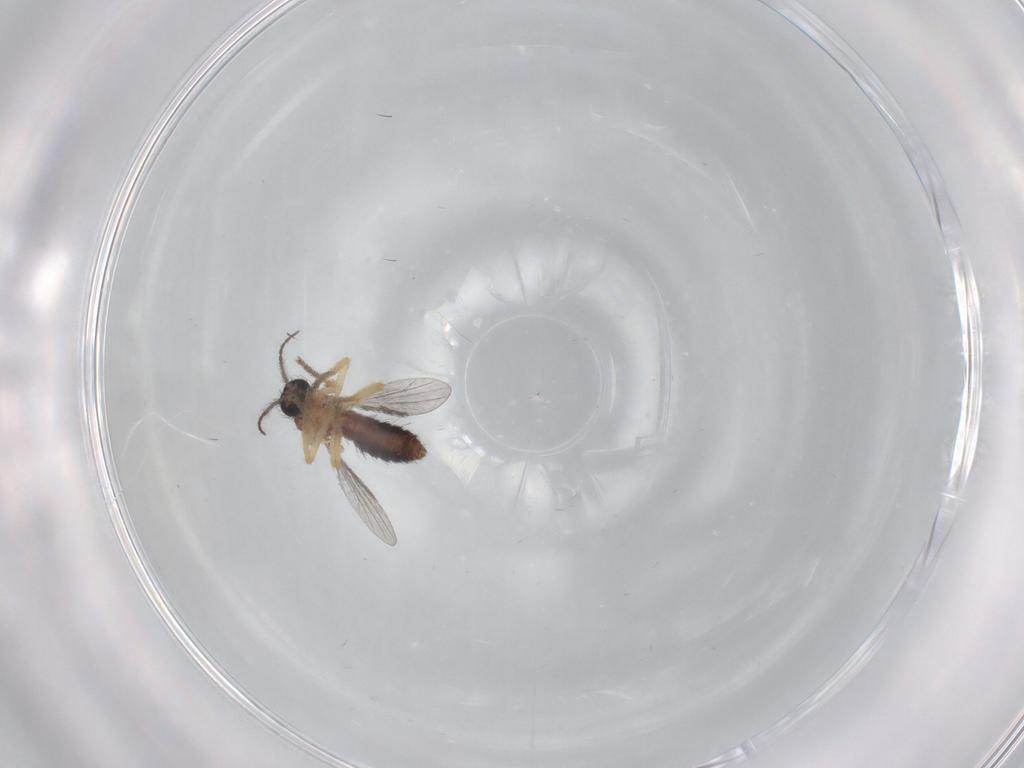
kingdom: Animalia
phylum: Arthropoda
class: Insecta
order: Diptera
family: Ceratopogonidae
